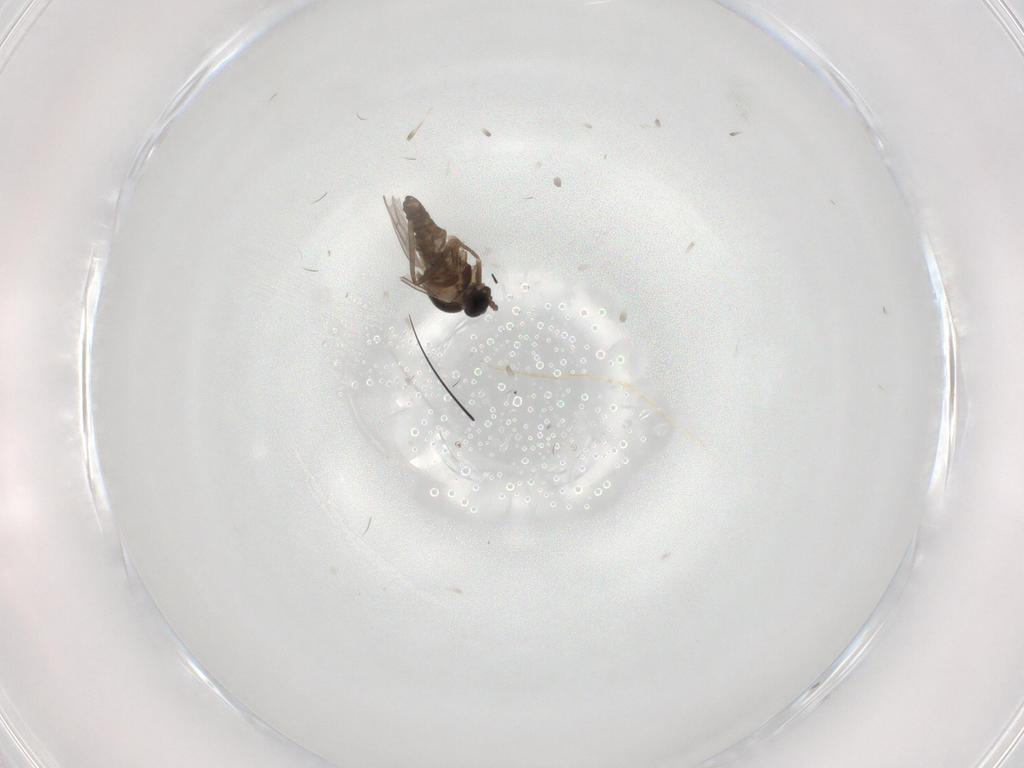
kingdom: Animalia
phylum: Arthropoda
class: Insecta
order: Diptera
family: Cecidomyiidae
